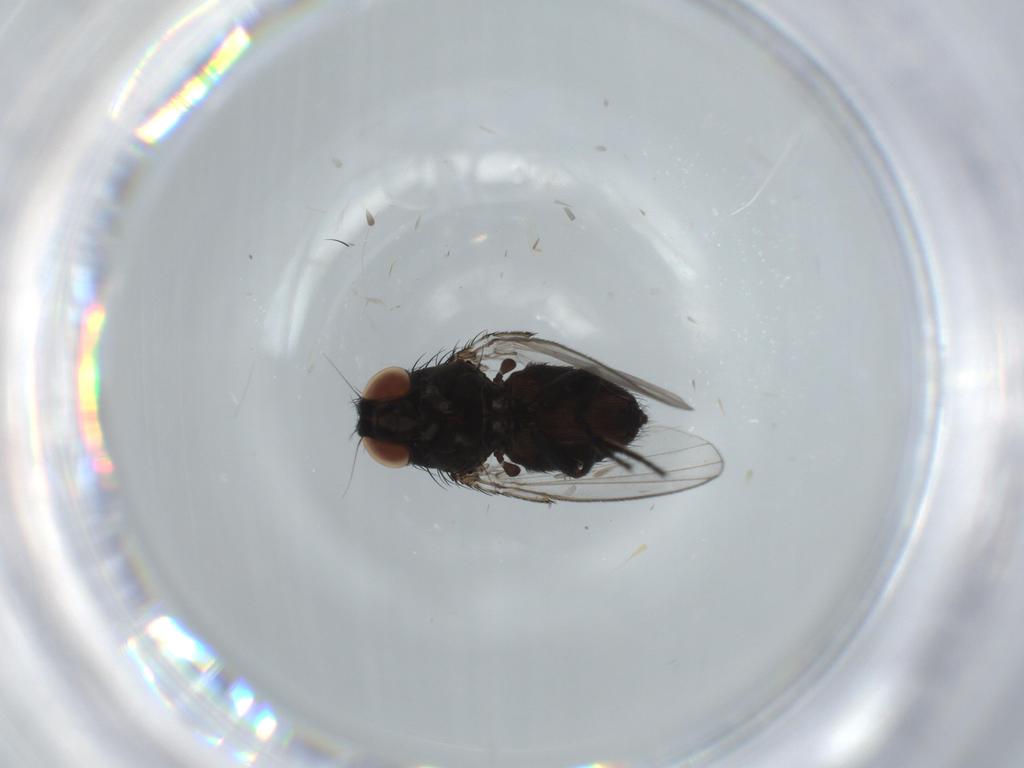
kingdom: Animalia
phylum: Arthropoda
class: Insecta
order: Diptera
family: Milichiidae
